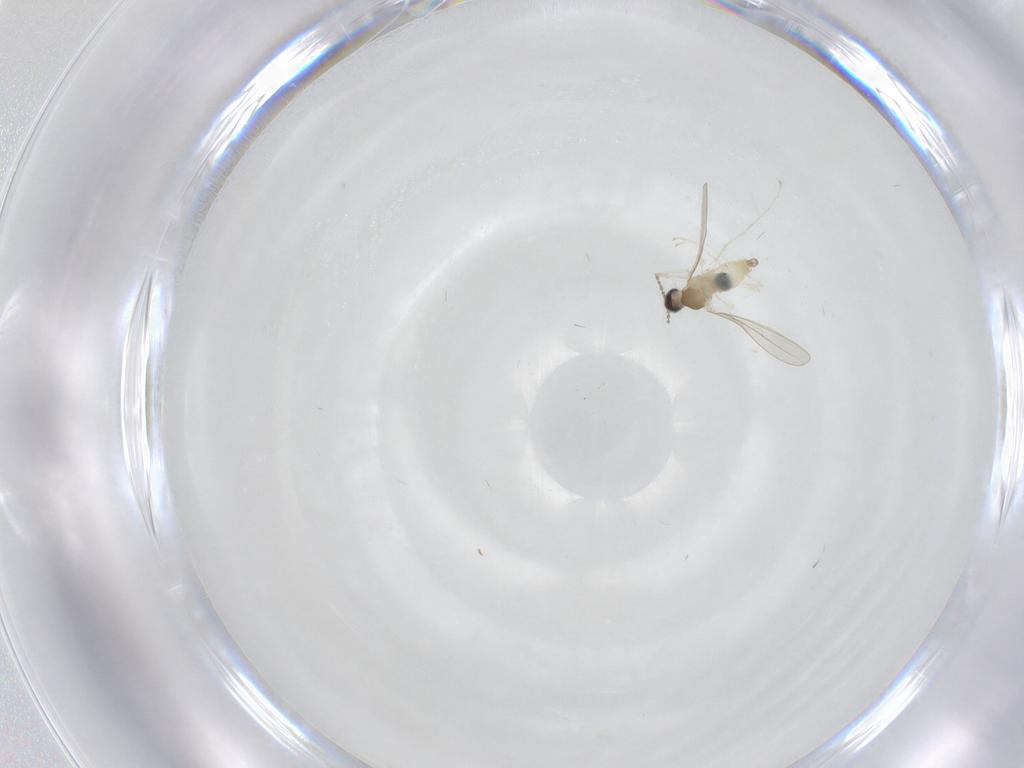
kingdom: Animalia
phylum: Arthropoda
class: Insecta
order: Diptera
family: Cecidomyiidae
